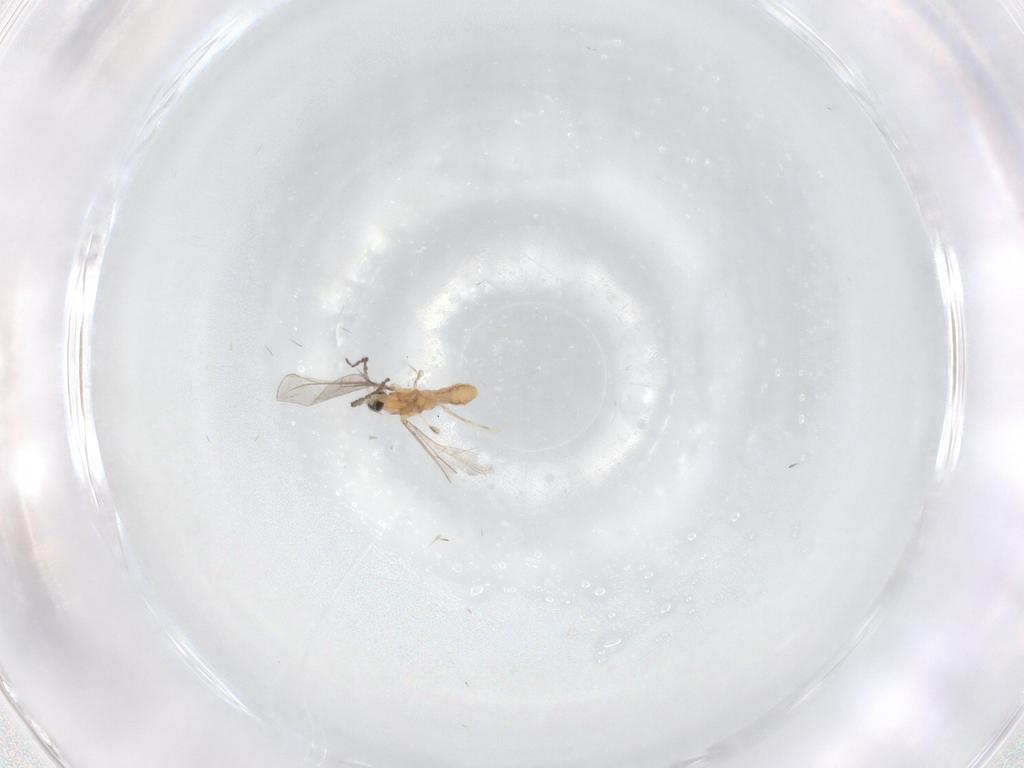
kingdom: Animalia
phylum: Arthropoda
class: Insecta
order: Diptera
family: Cecidomyiidae
